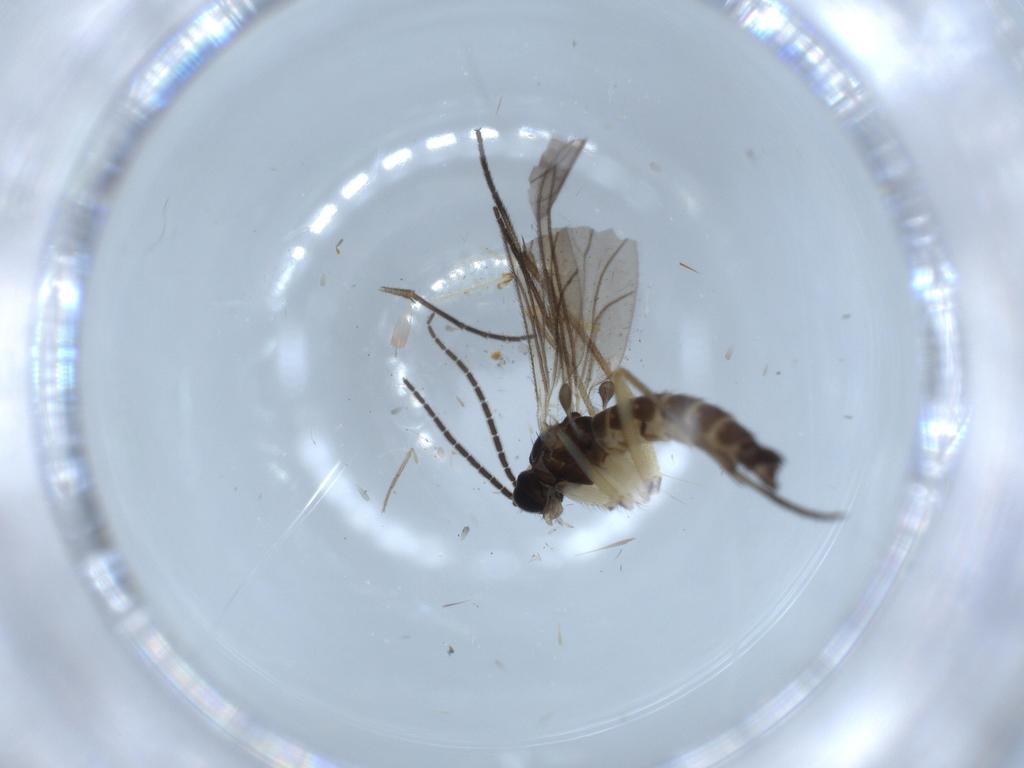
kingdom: Animalia
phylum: Arthropoda
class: Insecta
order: Diptera
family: Sciaridae
